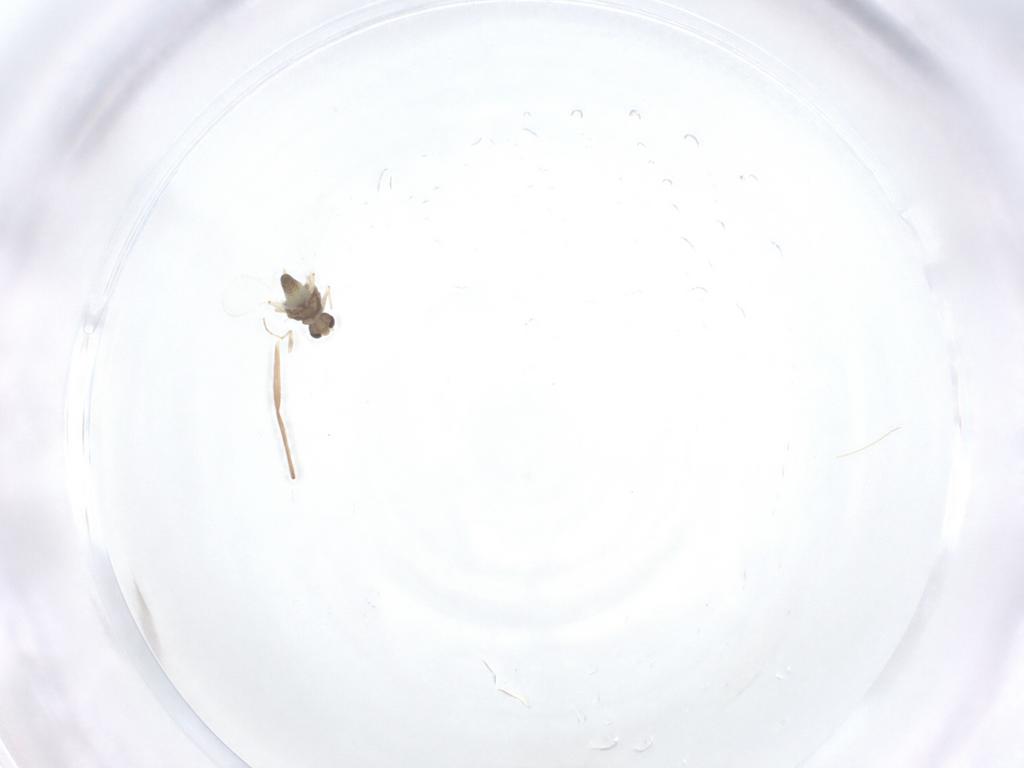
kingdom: Animalia
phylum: Arthropoda
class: Insecta
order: Diptera
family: Chironomidae
